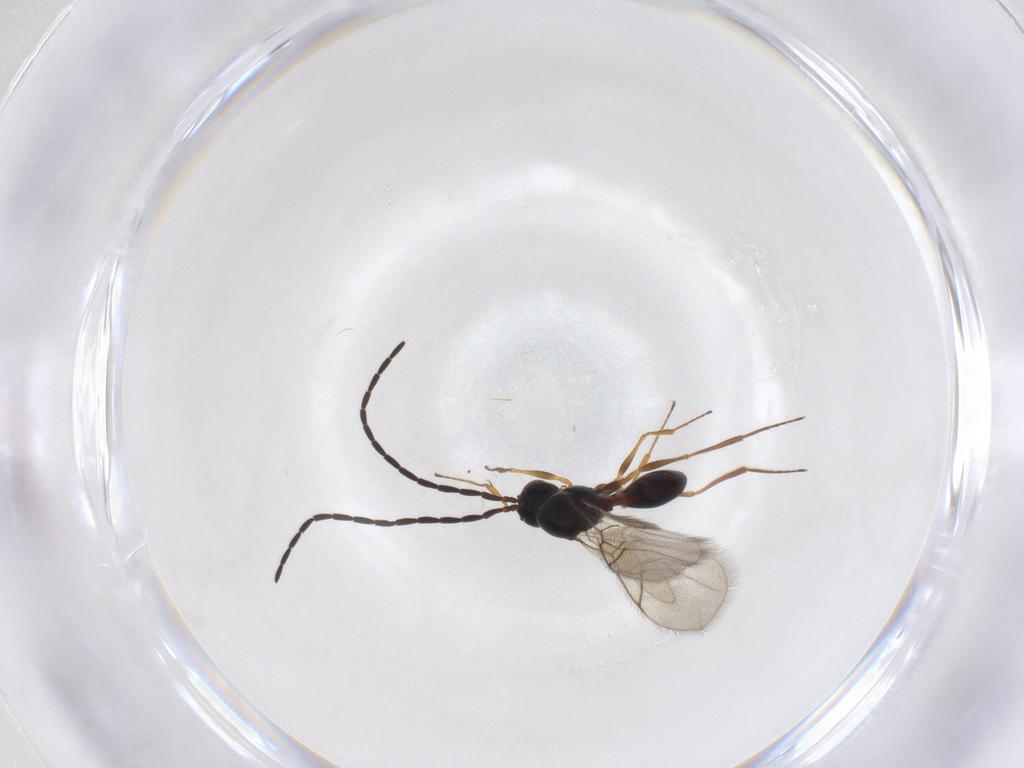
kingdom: Animalia
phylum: Arthropoda
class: Insecta
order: Hymenoptera
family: Figitidae
